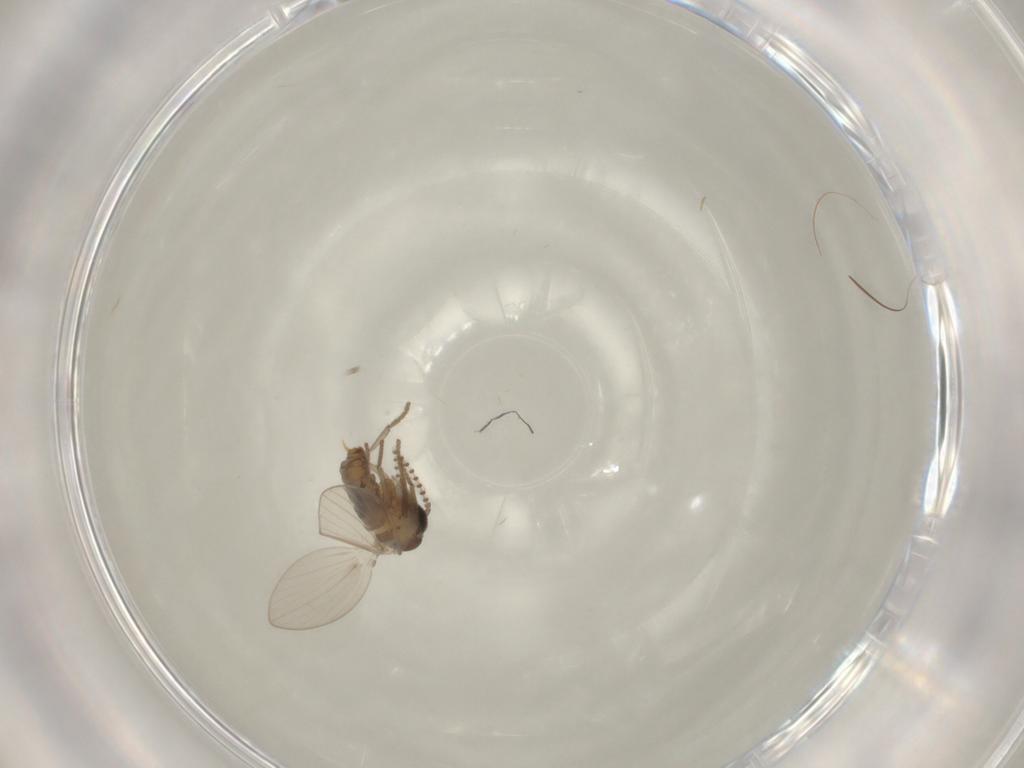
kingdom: Animalia
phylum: Arthropoda
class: Insecta
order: Diptera
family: Psychodidae
